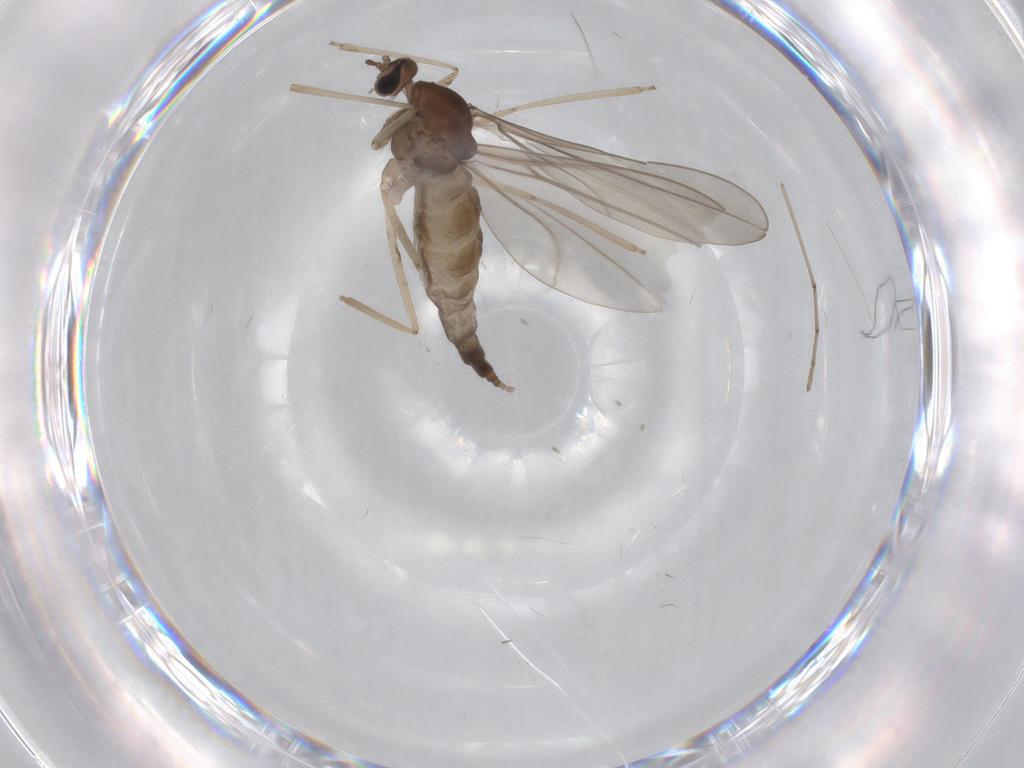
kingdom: Animalia
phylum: Arthropoda
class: Insecta
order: Diptera
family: Cecidomyiidae
